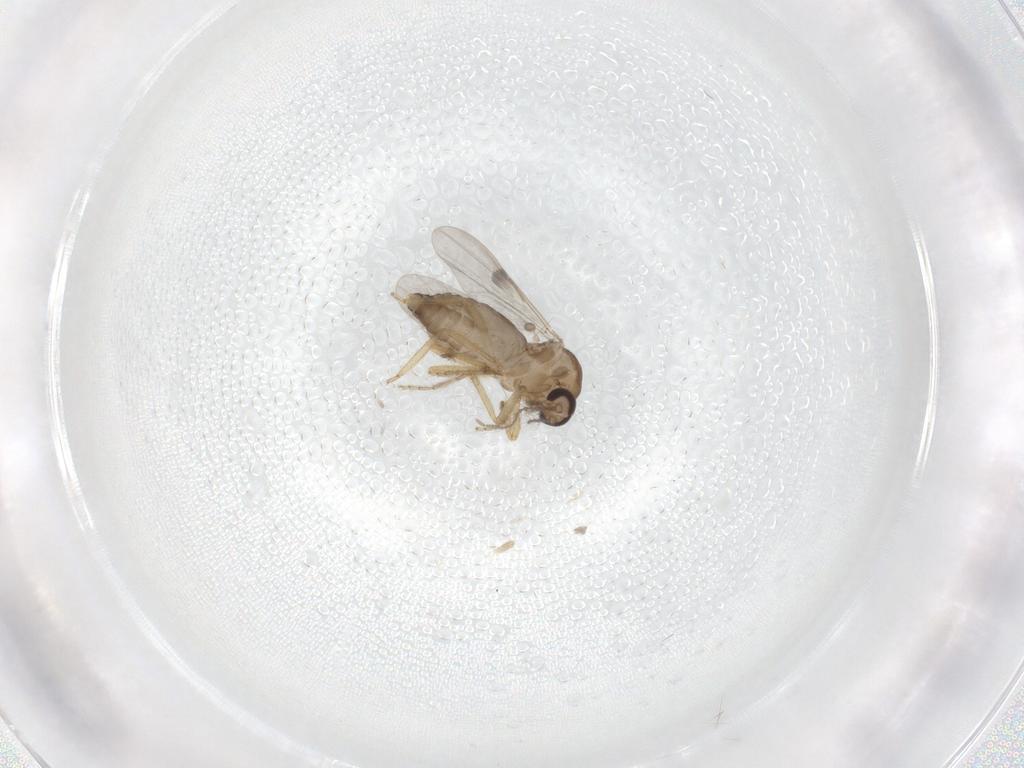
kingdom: Animalia
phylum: Arthropoda
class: Insecta
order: Diptera
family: Ceratopogonidae
